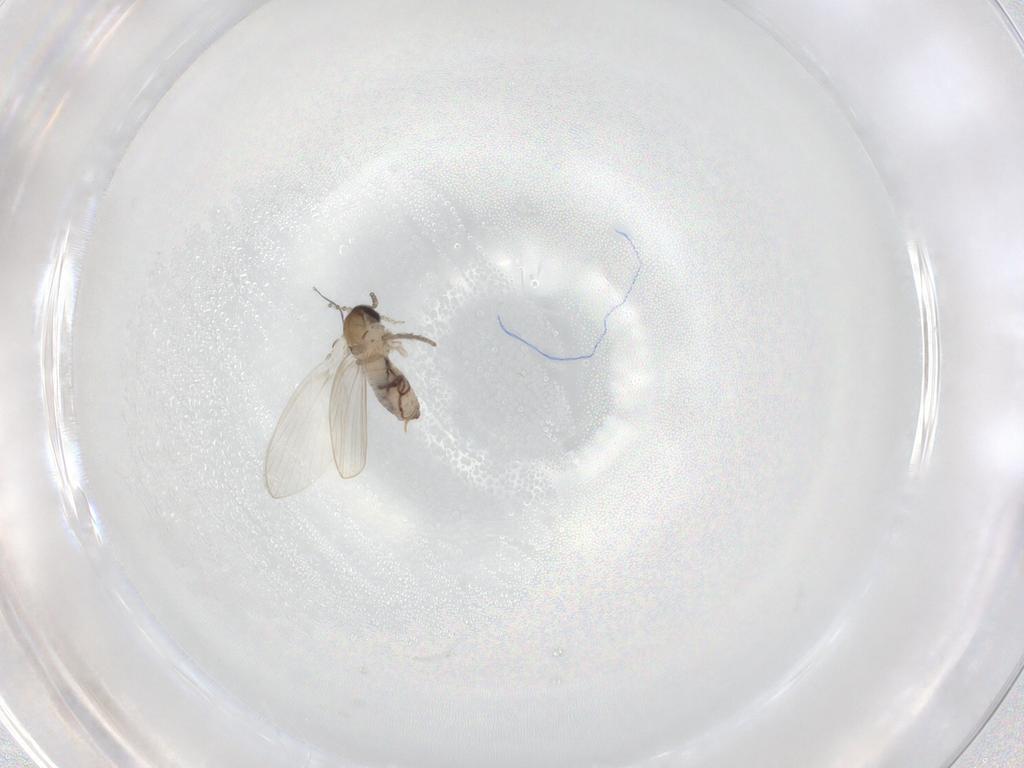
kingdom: Animalia
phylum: Arthropoda
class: Insecta
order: Diptera
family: Psychodidae
